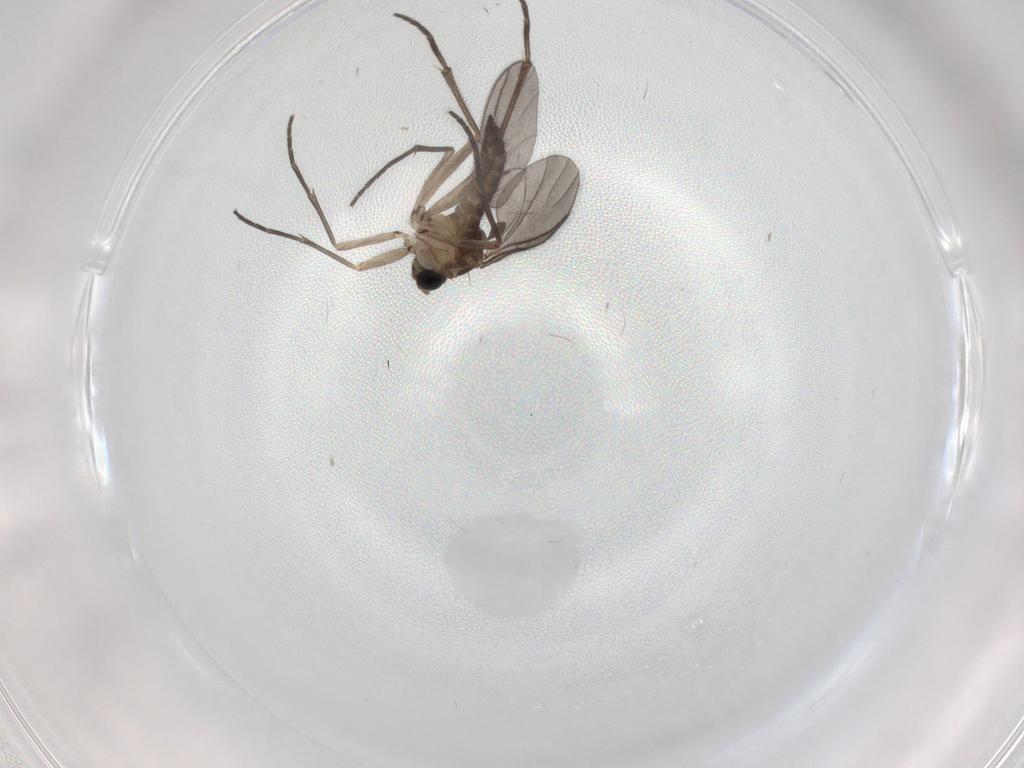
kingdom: Animalia
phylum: Arthropoda
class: Insecta
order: Diptera
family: Sciaridae
